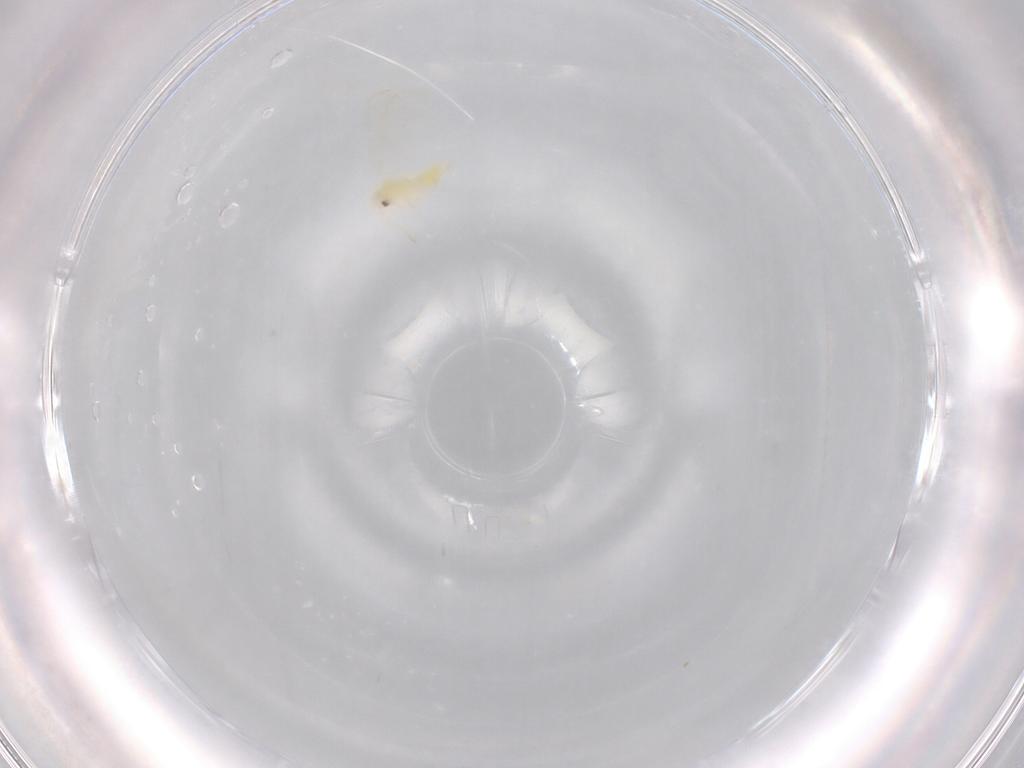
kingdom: Animalia
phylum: Arthropoda
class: Insecta
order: Hemiptera
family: Aleyrodidae
